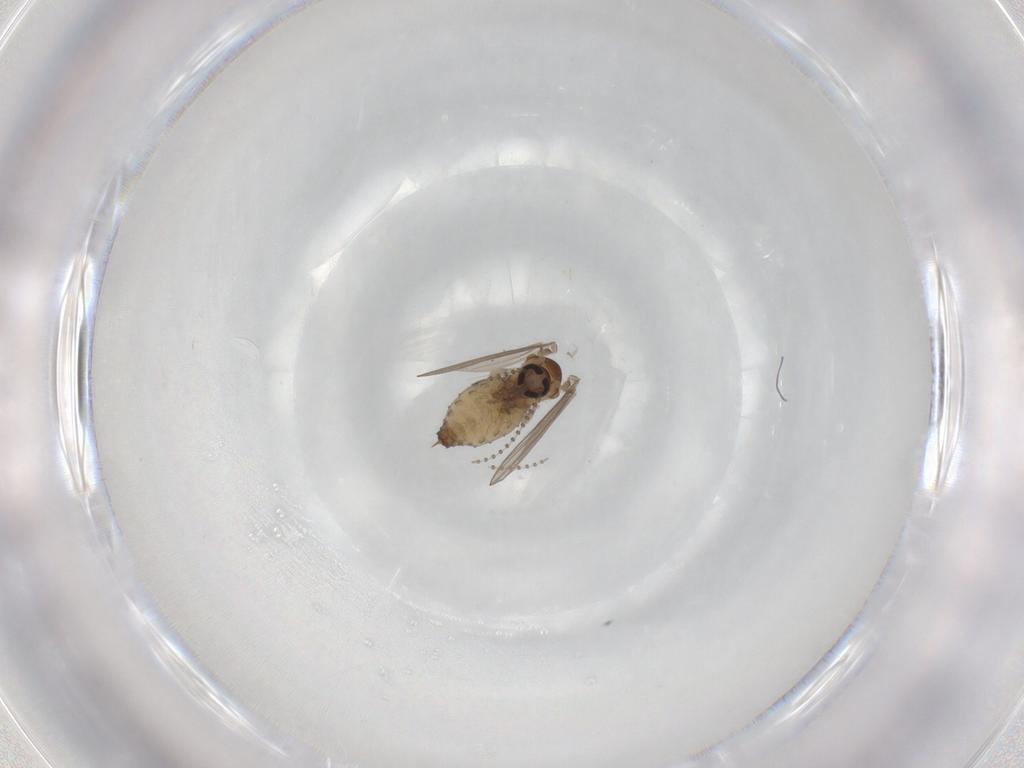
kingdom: Animalia
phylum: Arthropoda
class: Insecta
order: Diptera
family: Psychodidae
